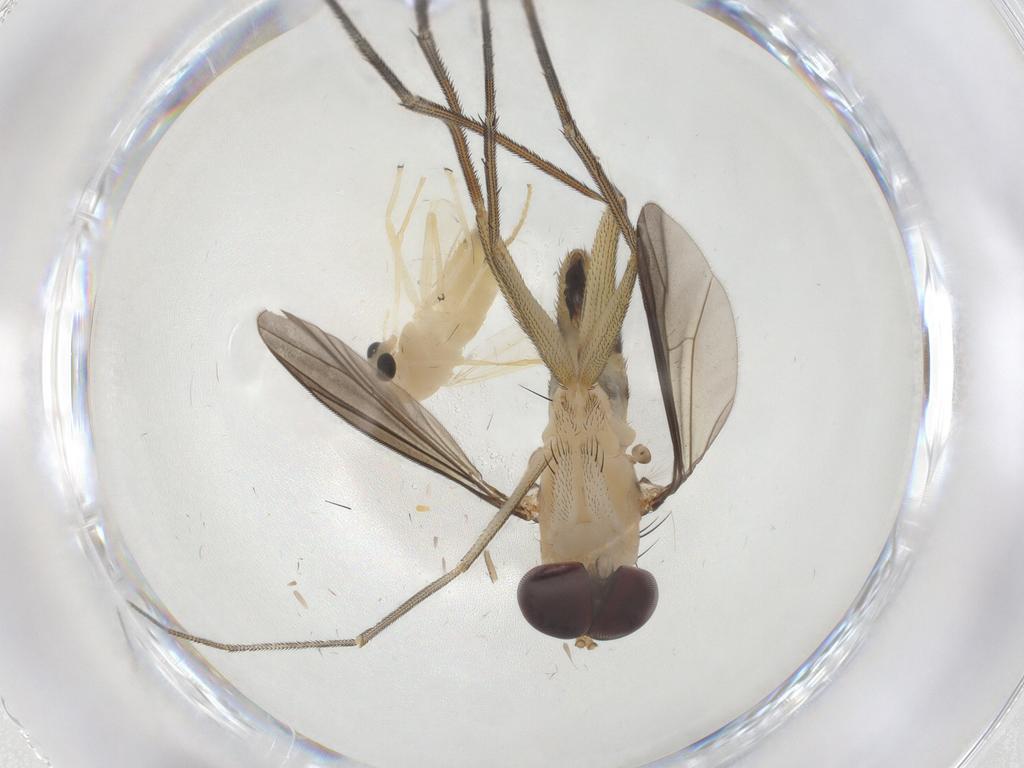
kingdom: Animalia
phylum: Arthropoda
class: Insecta
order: Diptera
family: Dolichopodidae
